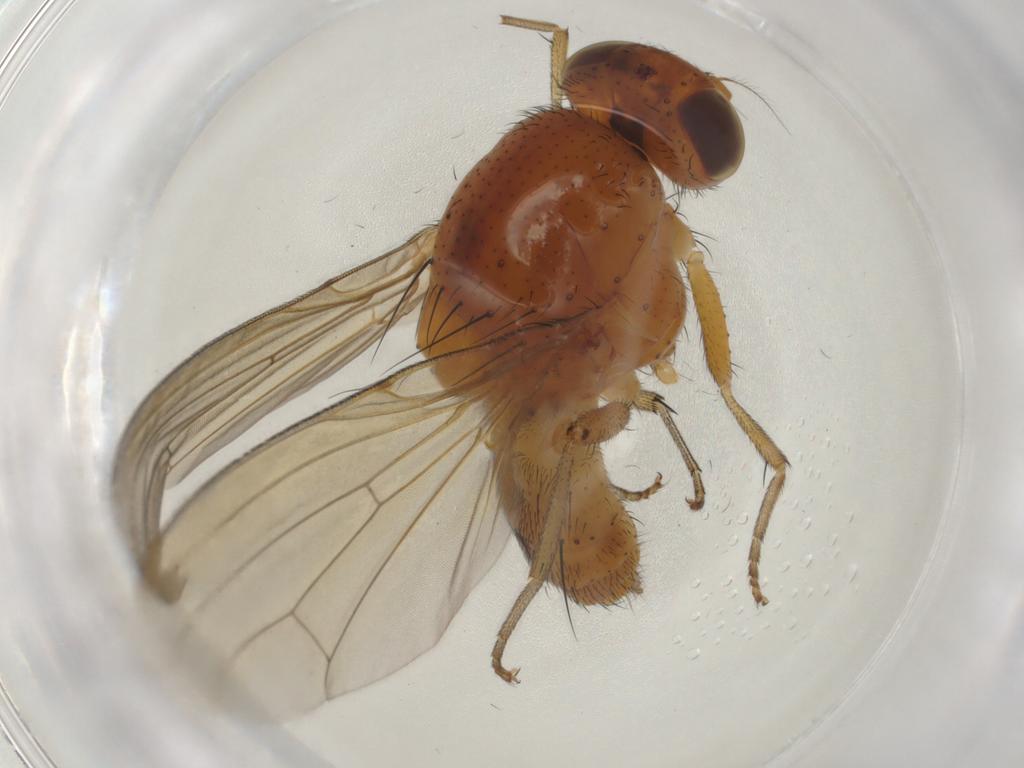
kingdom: Animalia
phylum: Arthropoda
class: Insecta
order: Diptera
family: Lauxaniidae
